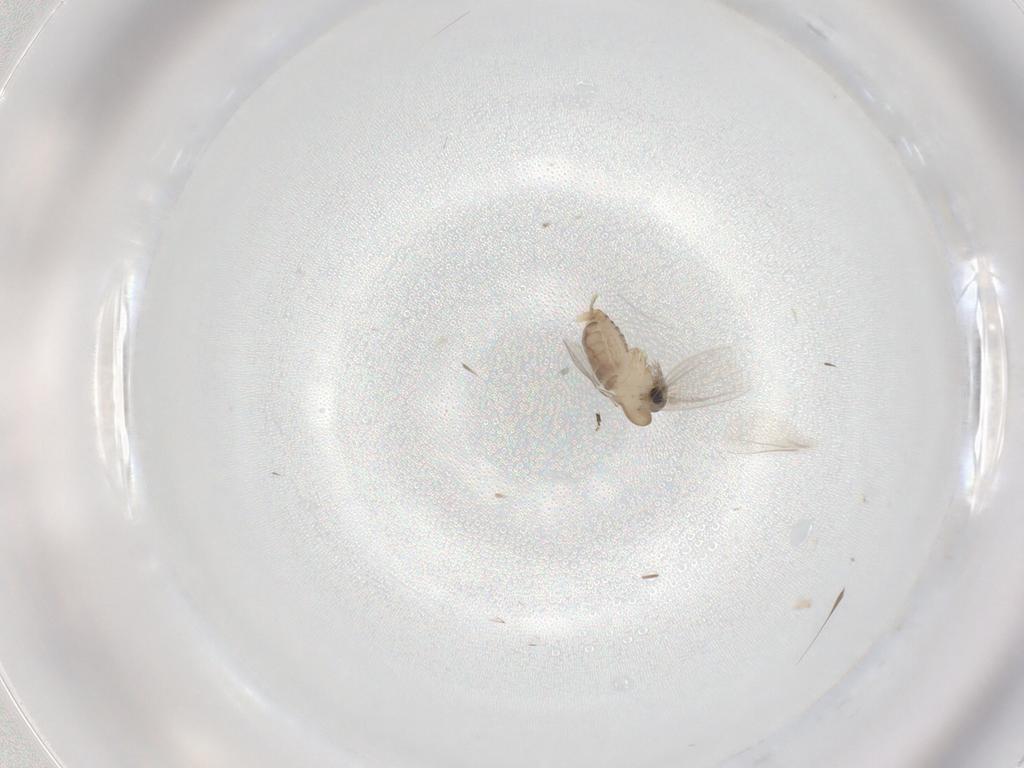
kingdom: Animalia
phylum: Arthropoda
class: Insecta
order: Diptera
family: Psychodidae
